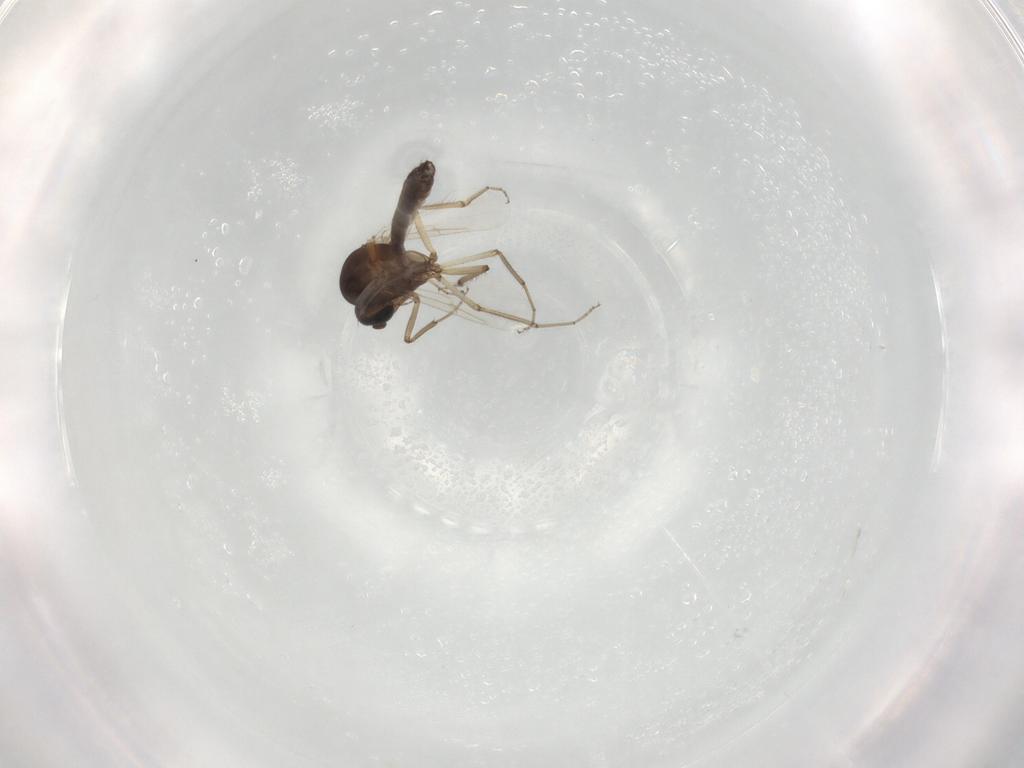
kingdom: Animalia
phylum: Arthropoda
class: Insecta
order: Diptera
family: Ceratopogonidae
